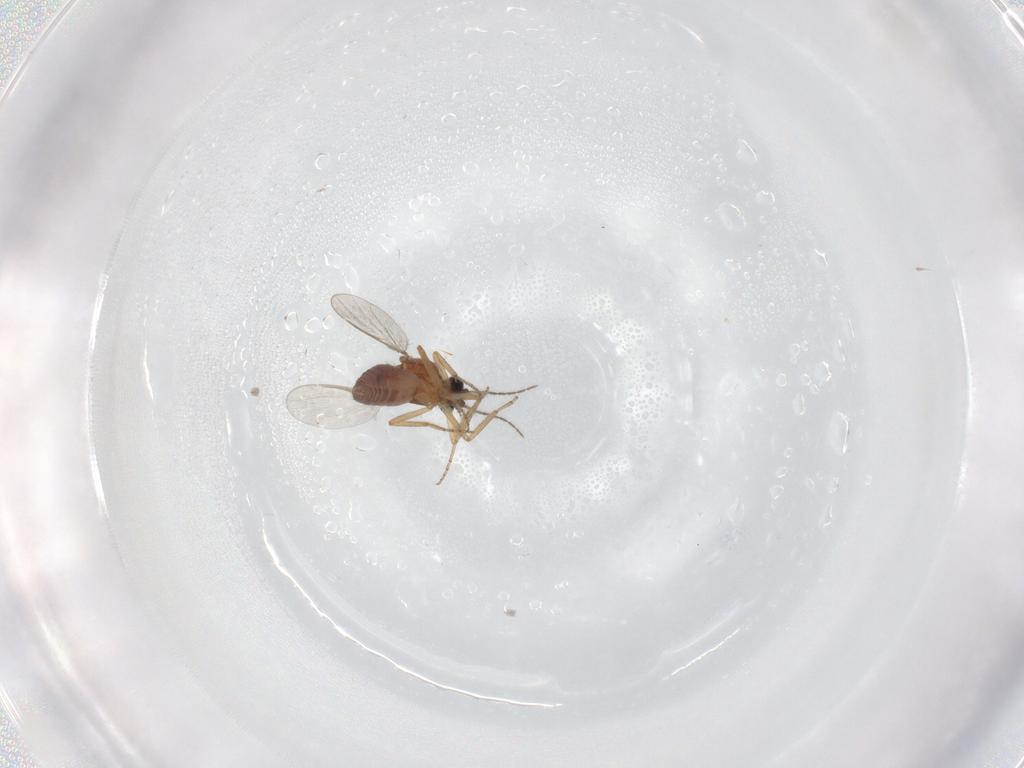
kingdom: Animalia
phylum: Arthropoda
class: Insecta
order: Diptera
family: Ceratopogonidae
